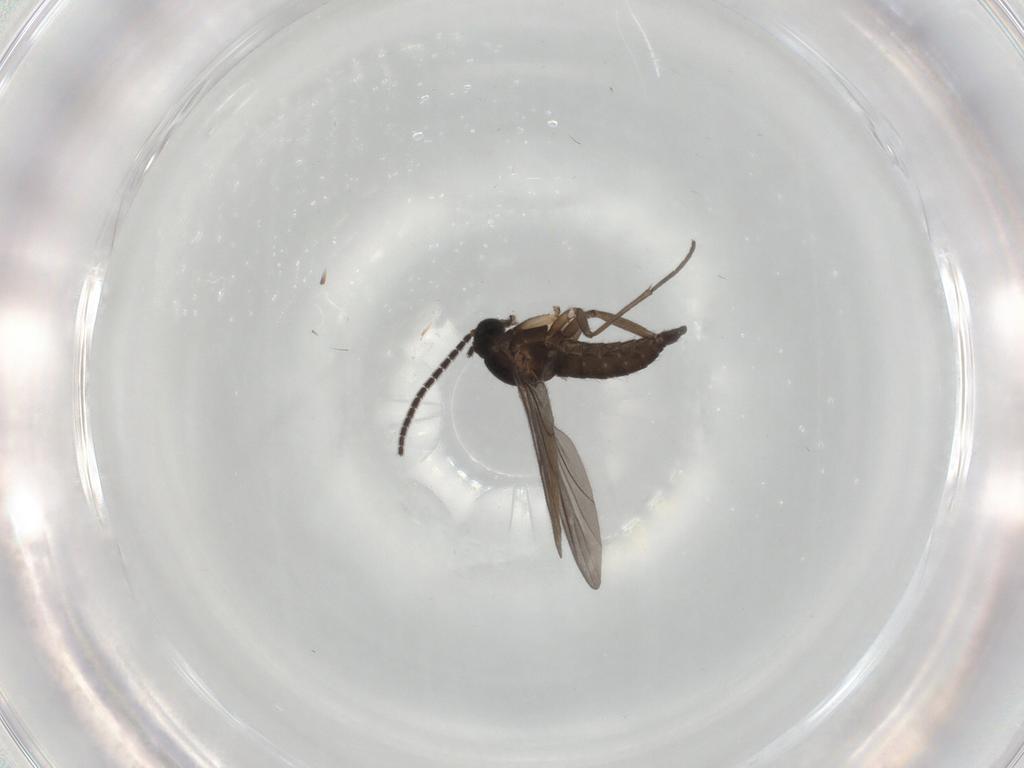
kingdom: Animalia
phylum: Arthropoda
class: Insecta
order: Diptera
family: Sciaridae
